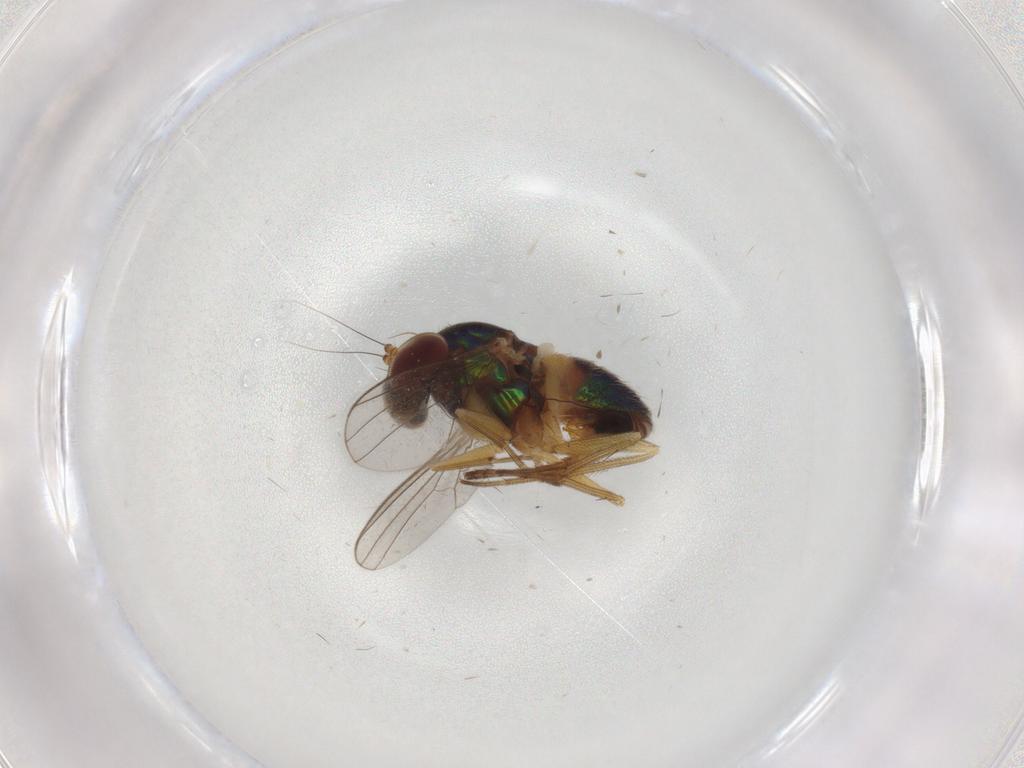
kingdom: Animalia
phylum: Arthropoda
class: Insecta
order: Diptera
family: Dolichopodidae
